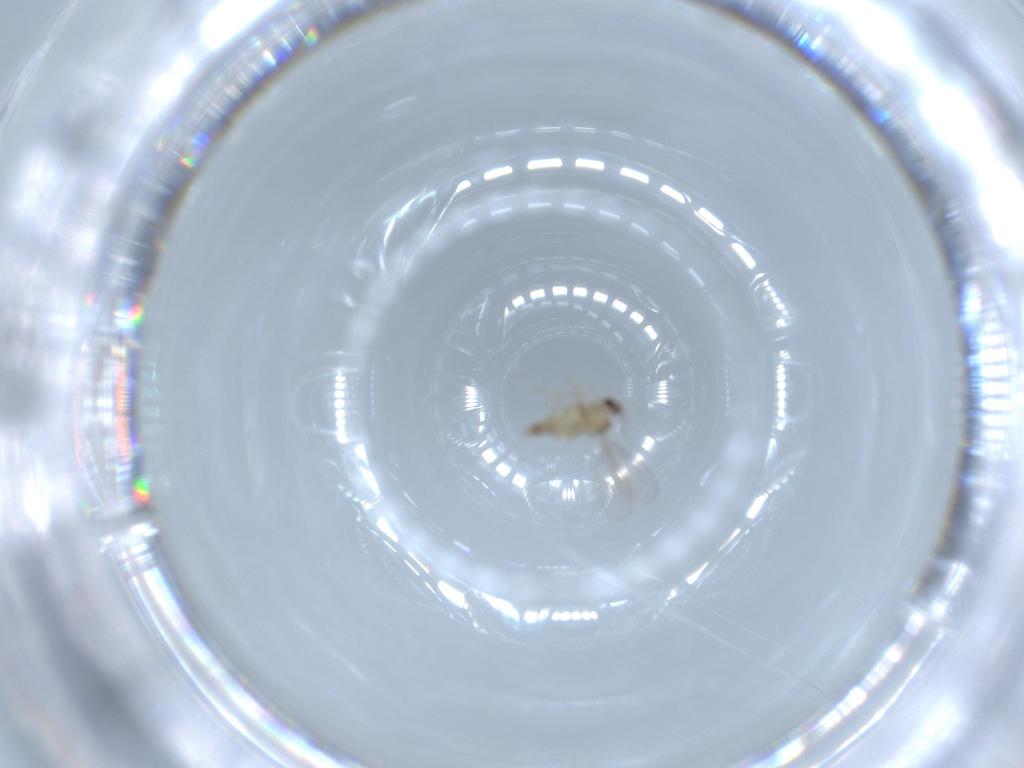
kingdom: Animalia
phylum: Arthropoda
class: Insecta
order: Diptera
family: Cecidomyiidae
